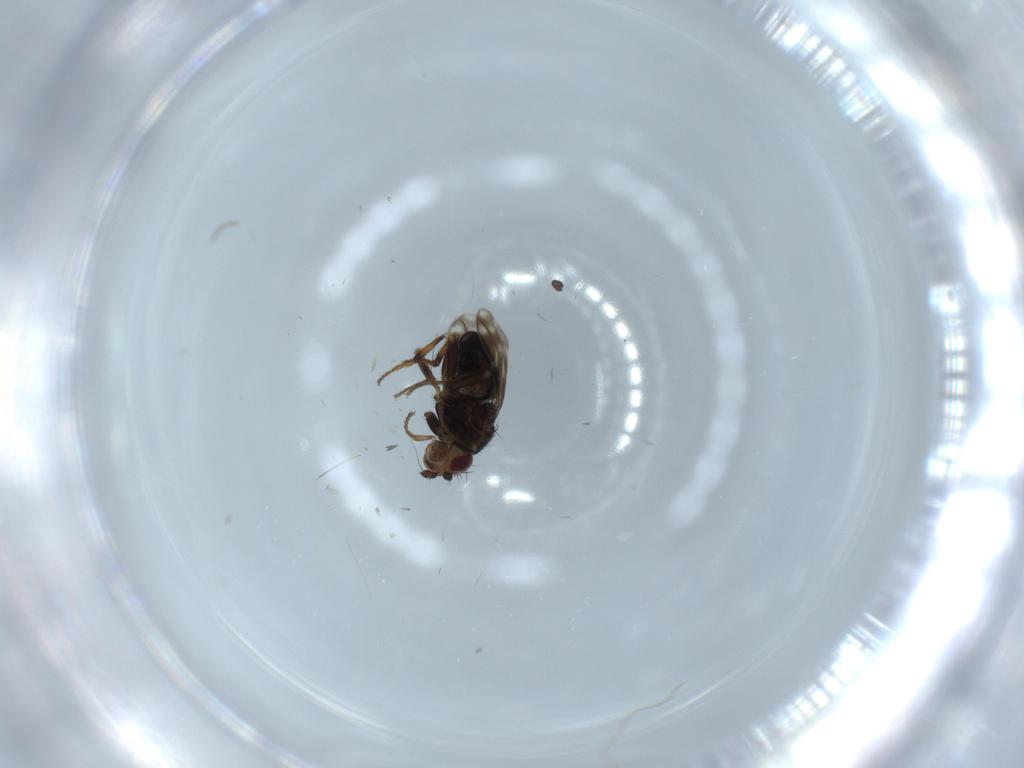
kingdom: Animalia
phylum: Arthropoda
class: Insecta
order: Diptera
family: Sphaeroceridae
